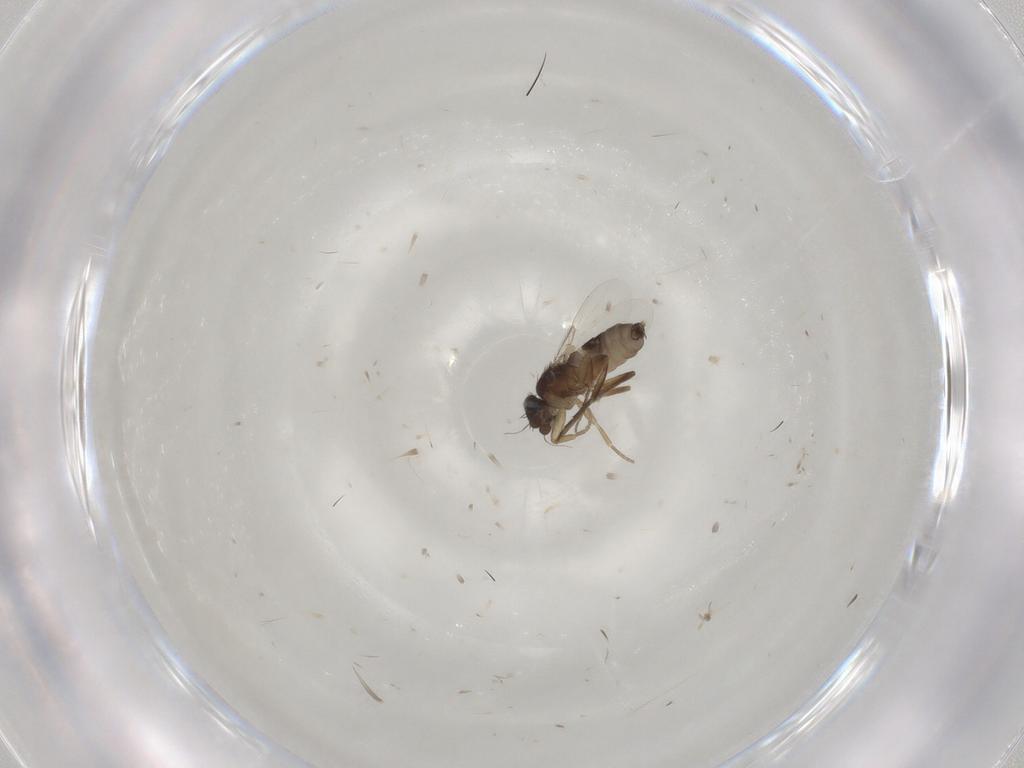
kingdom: Animalia
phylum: Arthropoda
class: Insecta
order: Diptera
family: Phoridae
